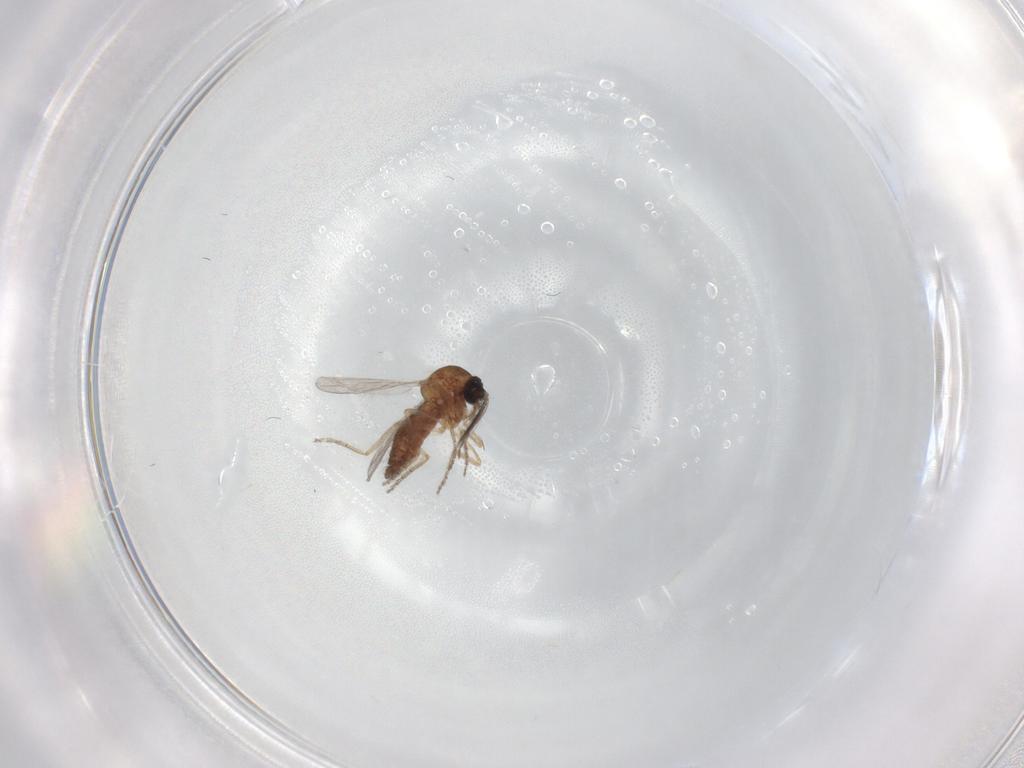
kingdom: Animalia
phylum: Arthropoda
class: Insecta
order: Diptera
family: Ceratopogonidae
